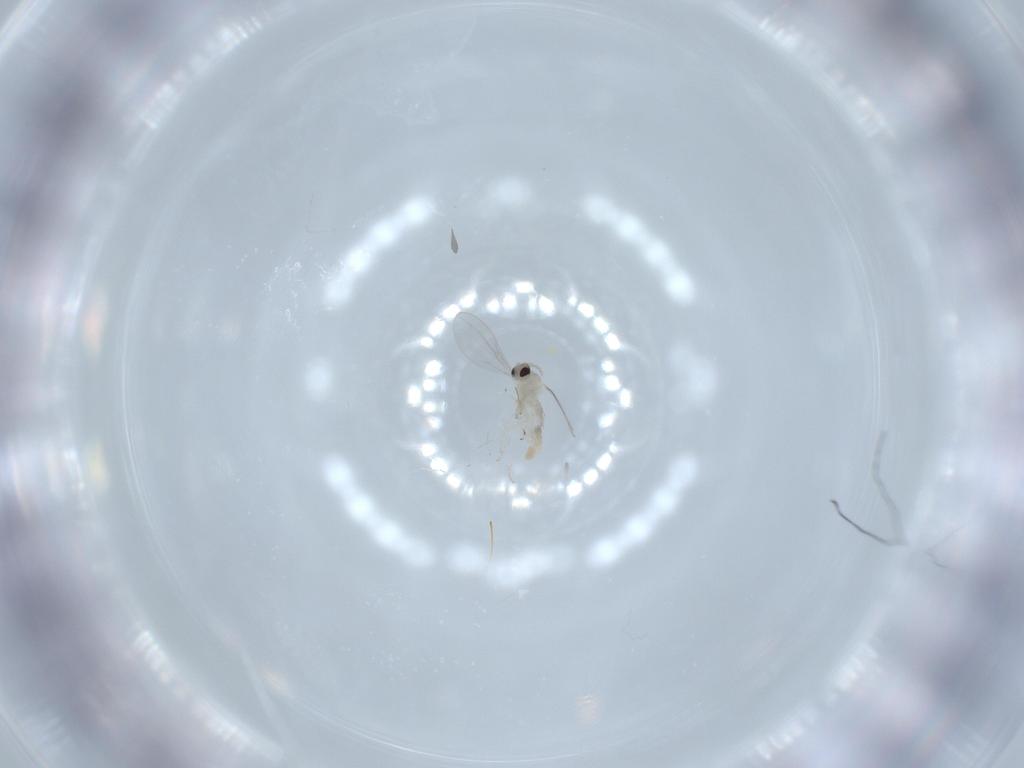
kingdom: Animalia
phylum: Arthropoda
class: Insecta
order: Diptera
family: Cecidomyiidae
